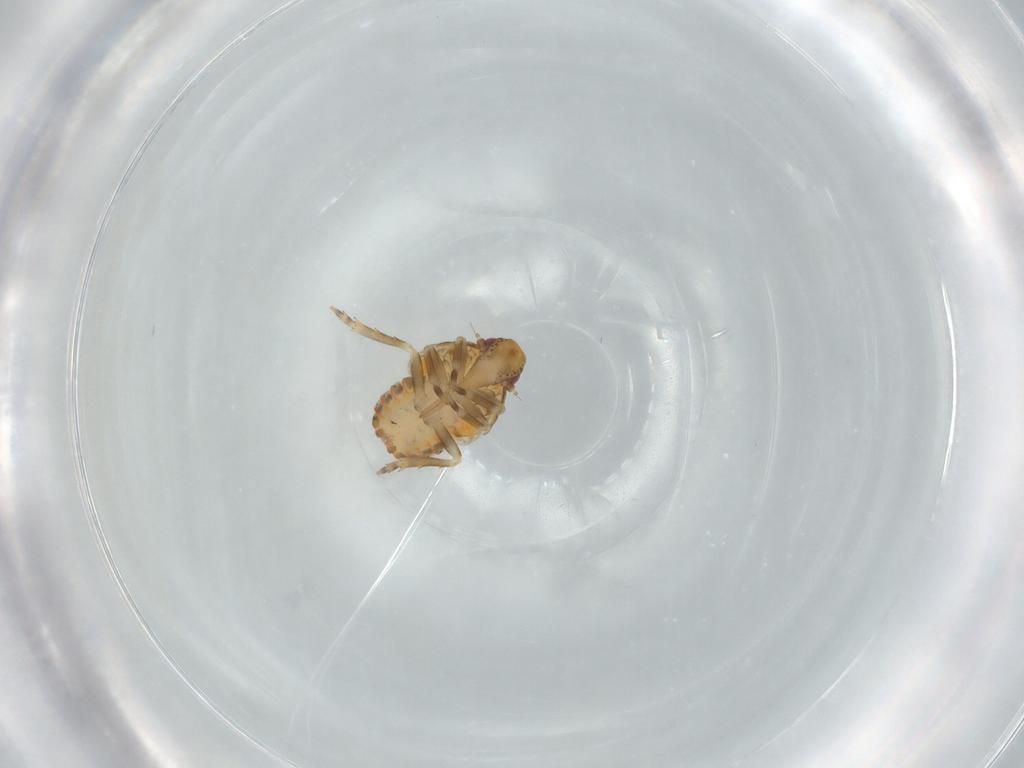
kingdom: Animalia
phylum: Arthropoda
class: Insecta
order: Hemiptera
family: Flatidae
